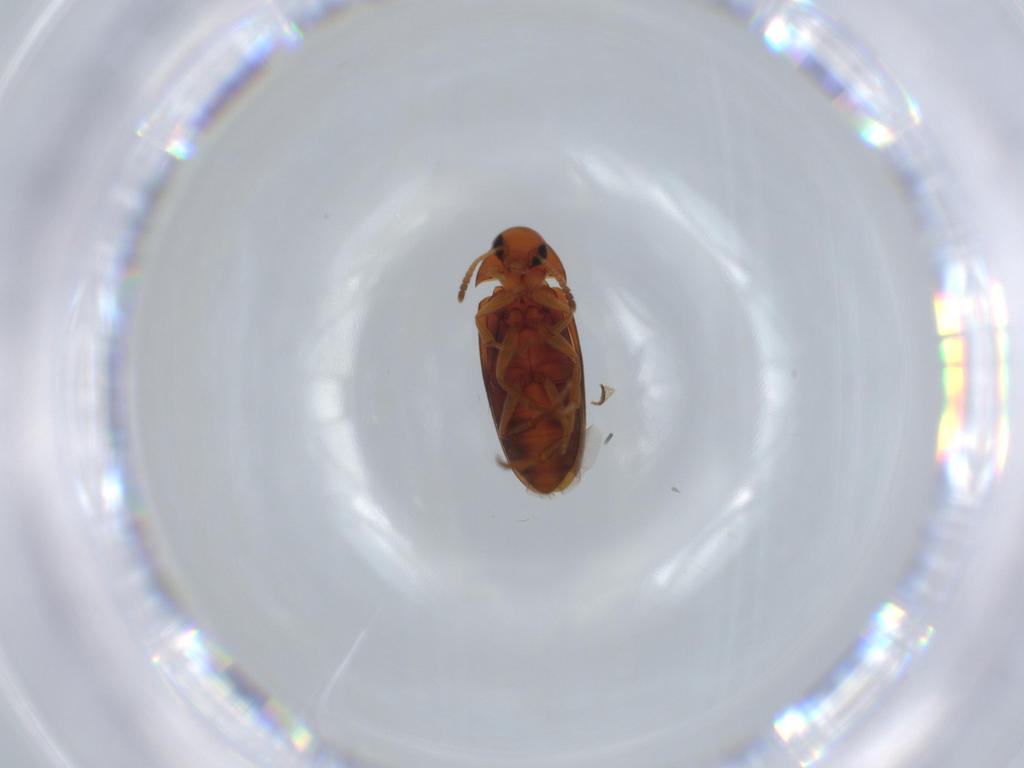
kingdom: Animalia
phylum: Arthropoda
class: Insecta
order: Coleoptera
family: Scraptiidae
